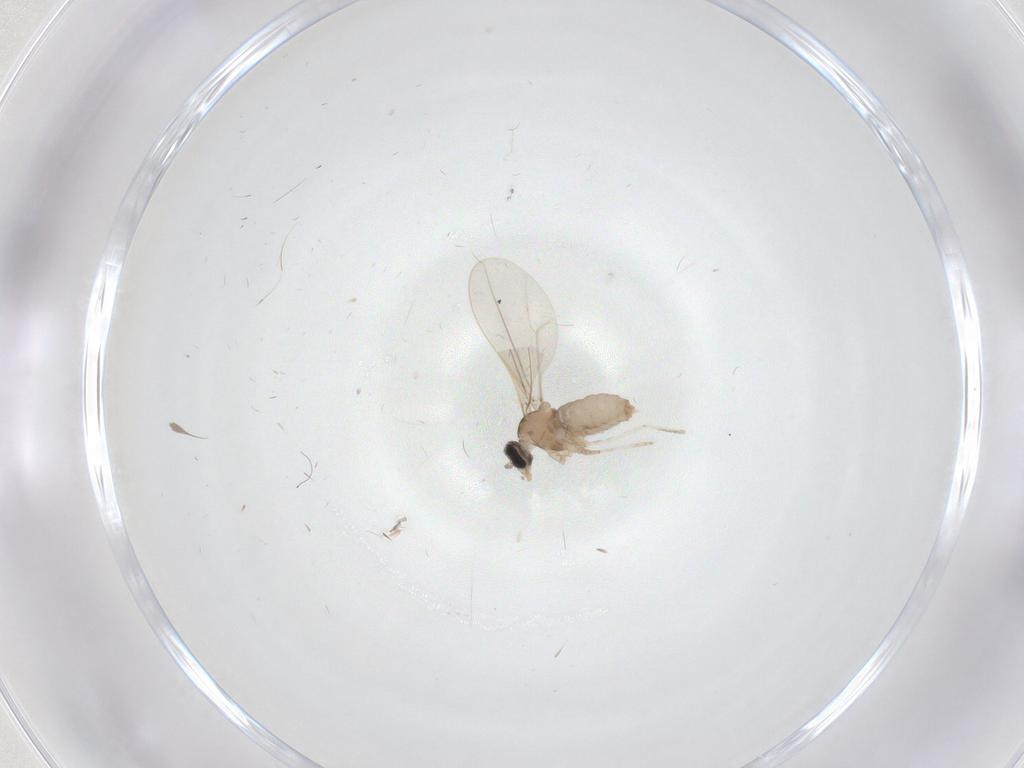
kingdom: Animalia
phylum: Arthropoda
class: Insecta
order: Diptera
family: Cecidomyiidae
